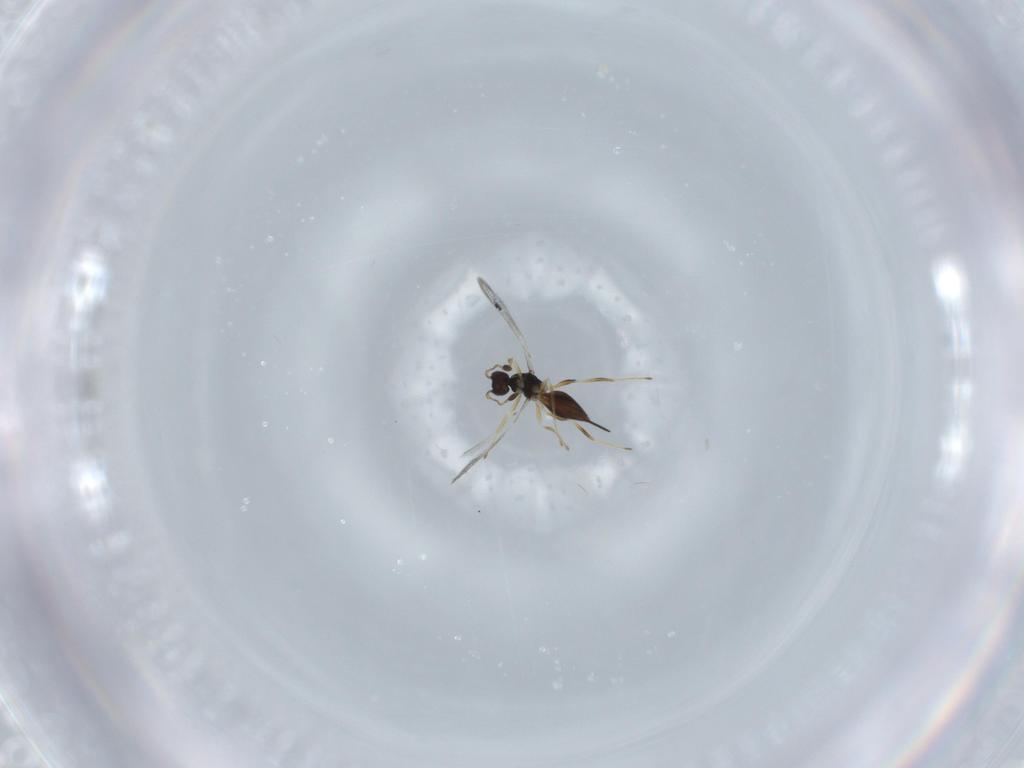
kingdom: Animalia
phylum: Arthropoda
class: Insecta
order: Hymenoptera
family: Mymaridae
